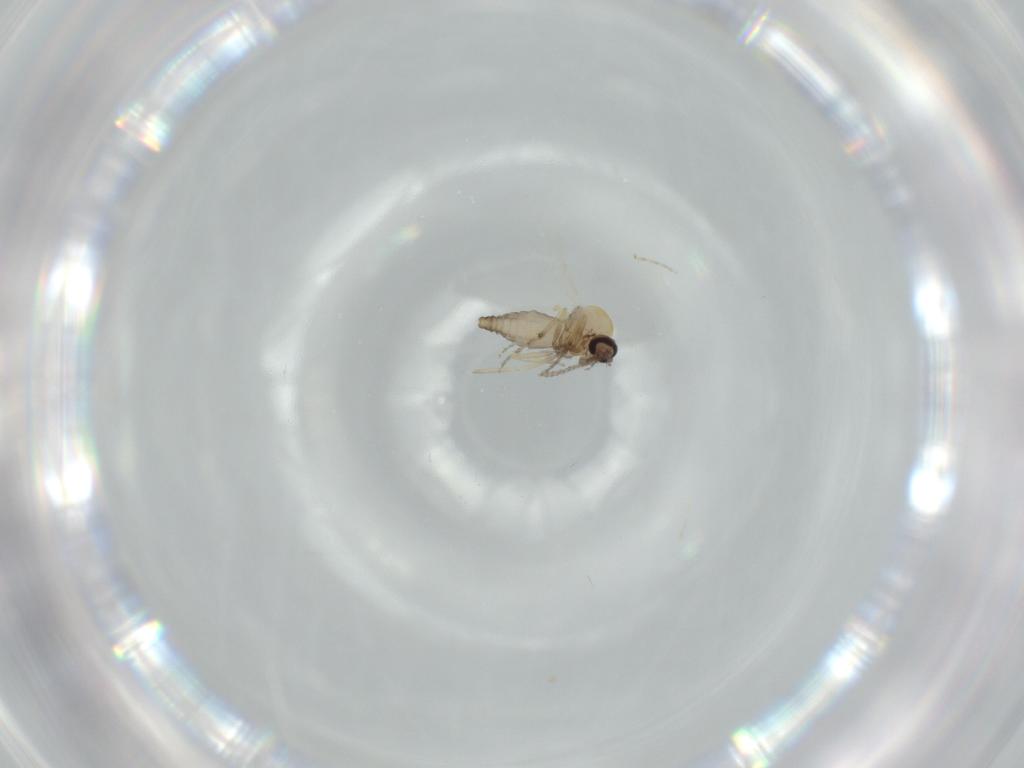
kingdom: Animalia
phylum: Arthropoda
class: Insecta
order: Diptera
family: Cecidomyiidae
